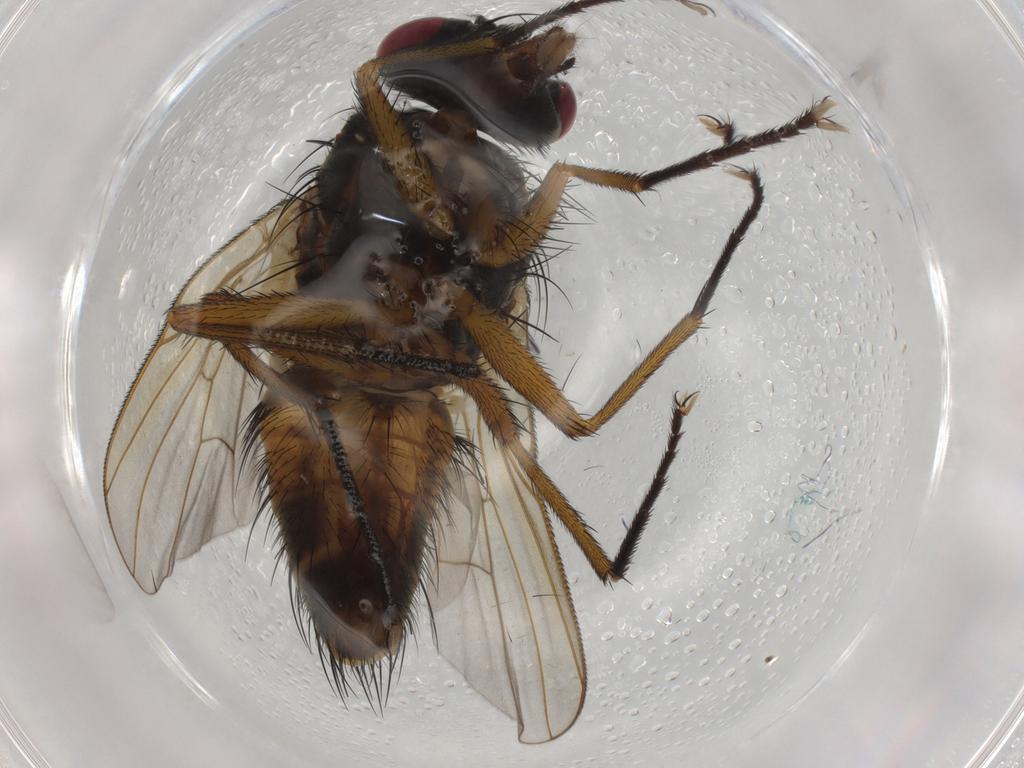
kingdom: Animalia
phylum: Arthropoda
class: Insecta
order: Diptera
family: Muscidae
